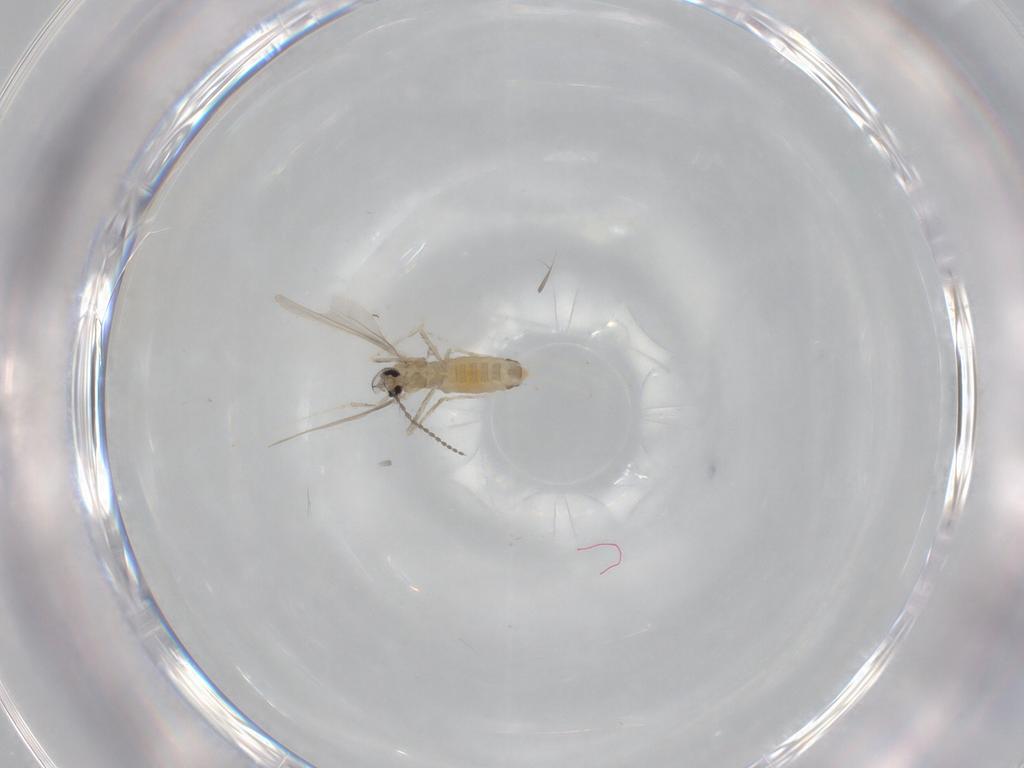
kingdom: Animalia
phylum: Arthropoda
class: Insecta
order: Diptera
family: Cecidomyiidae
